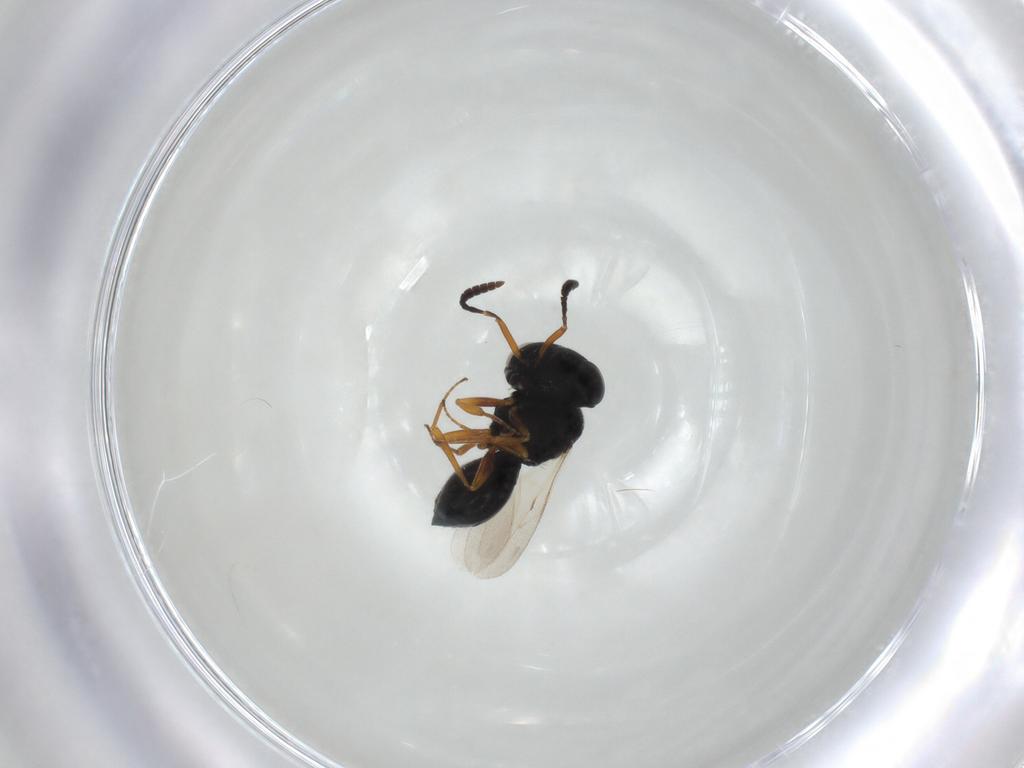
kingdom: Animalia
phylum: Arthropoda
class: Insecta
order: Hymenoptera
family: Scelionidae
